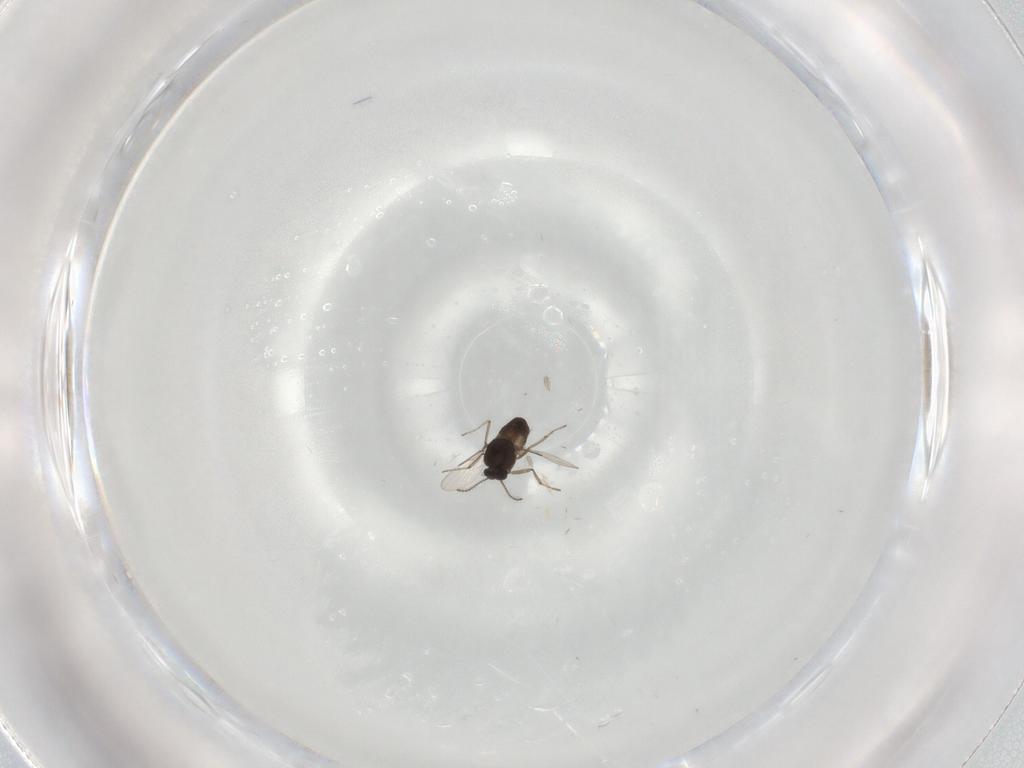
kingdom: Animalia
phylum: Arthropoda
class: Insecta
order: Diptera
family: Ceratopogonidae
